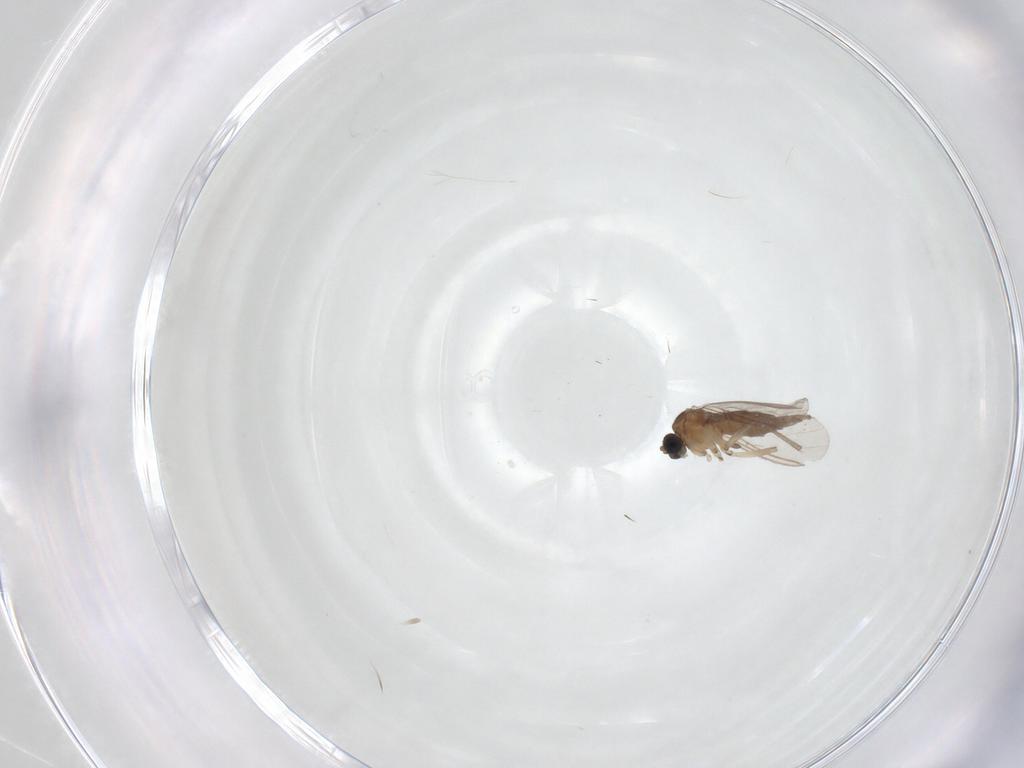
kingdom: Animalia
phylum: Arthropoda
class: Insecta
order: Diptera
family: Sciaridae
